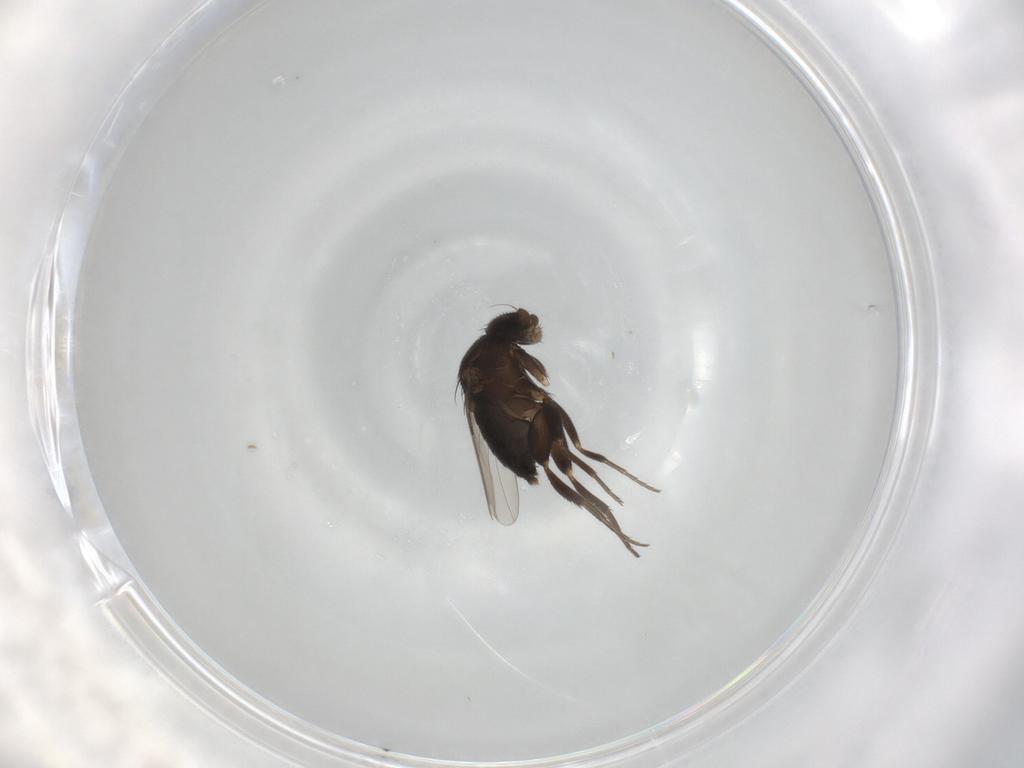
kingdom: Animalia
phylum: Arthropoda
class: Insecta
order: Diptera
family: Phoridae
